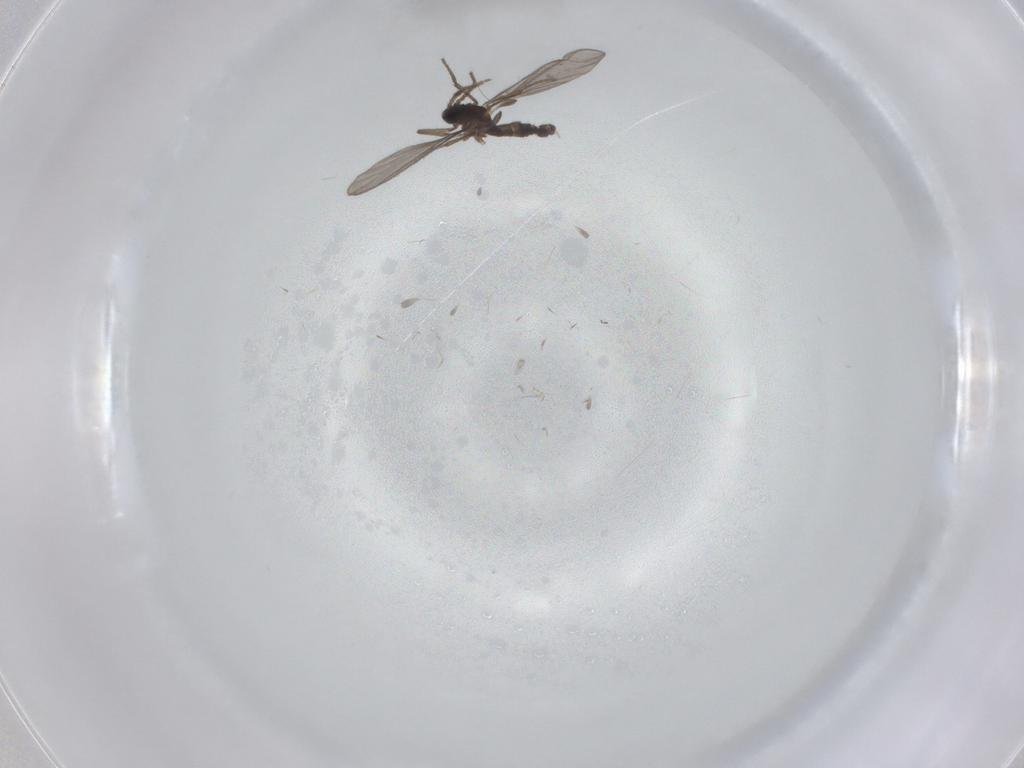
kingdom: Animalia
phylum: Arthropoda
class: Insecta
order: Diptera
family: Sciaridae
